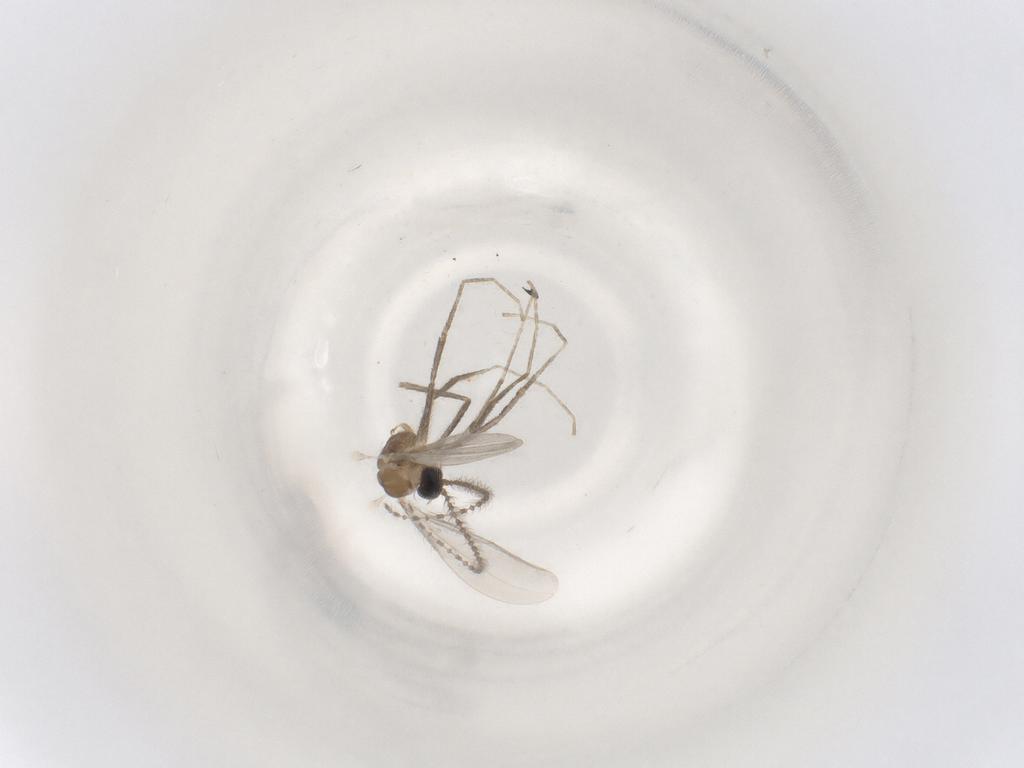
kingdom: Animalia
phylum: Arthropoda
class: Insecta
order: Diptera
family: Cecidomyiidae
